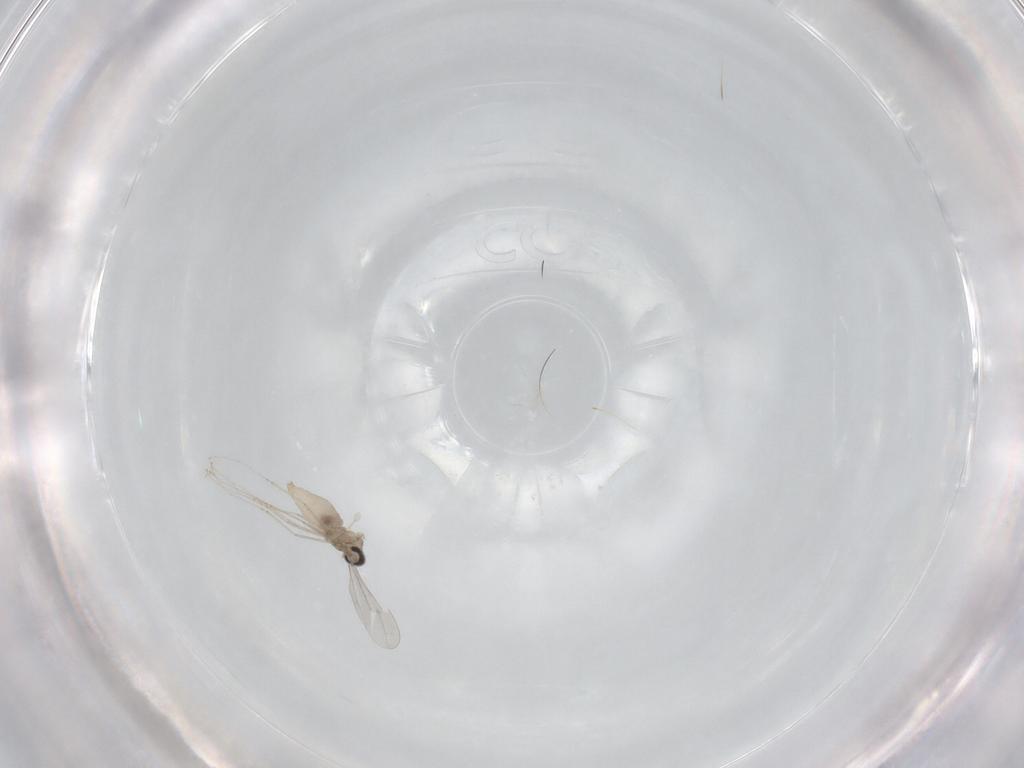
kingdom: Animalia
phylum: Arthropoda
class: Insecta
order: Diptera
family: Cecidomyiidae
